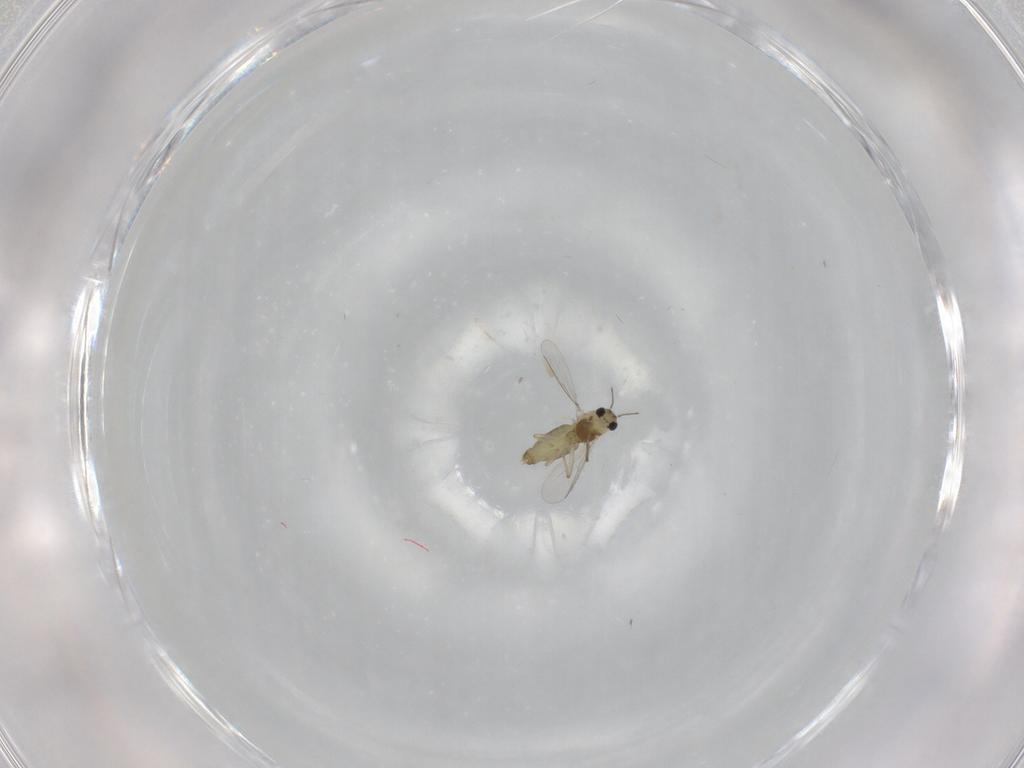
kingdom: Animalia
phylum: Arthropoda
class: Insecta
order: Diptera
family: Chironomidae
